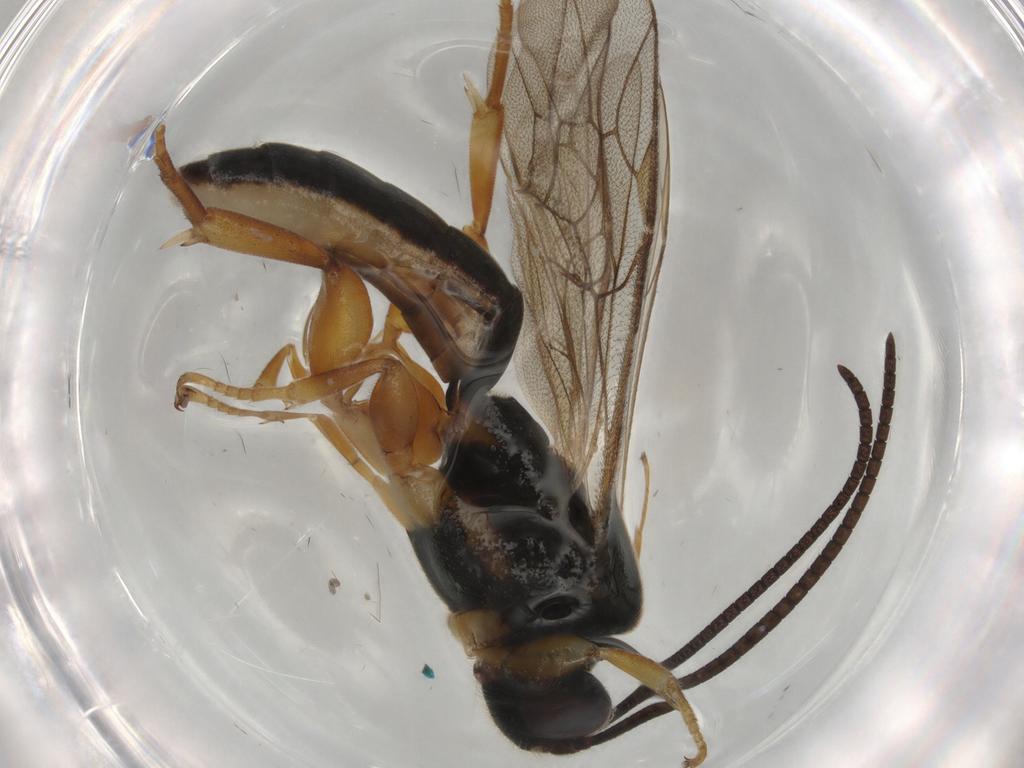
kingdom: Animalia
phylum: Arthropoda
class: Insecta
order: Hymenoptera
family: Ichneumonidae
